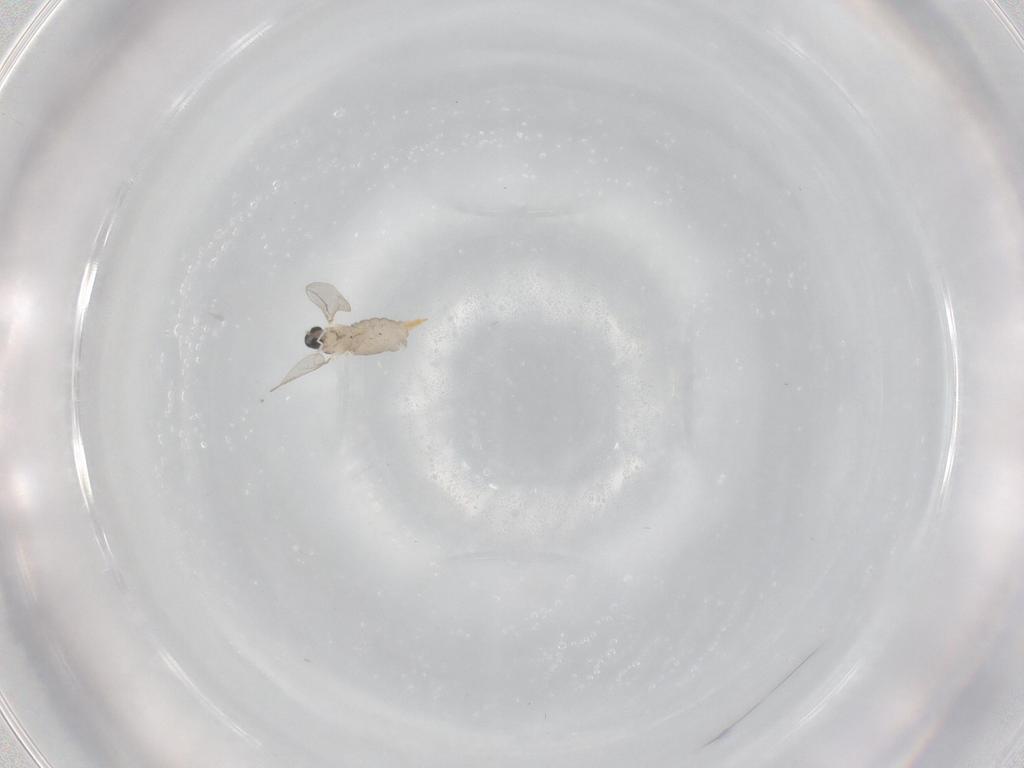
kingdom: Animalia
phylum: Arthropoda
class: Insecta
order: Diptera
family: Cecidomyiidae
